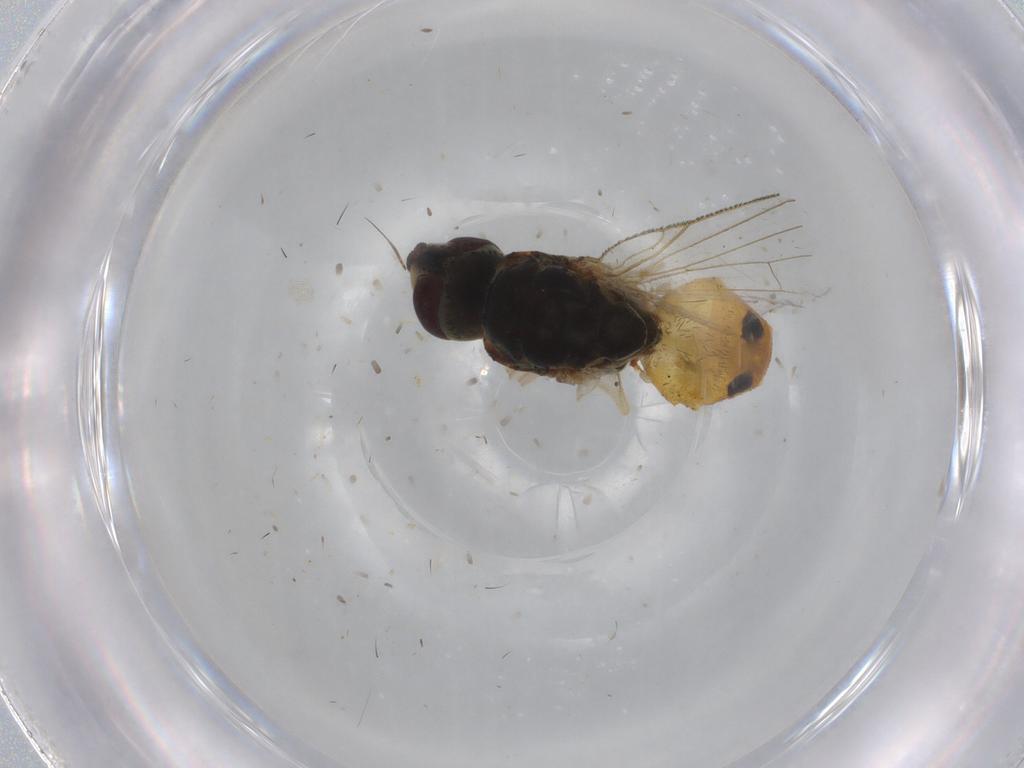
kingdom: Animalia
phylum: Arthropoda
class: Insecta
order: Diptera
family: Muscidae
